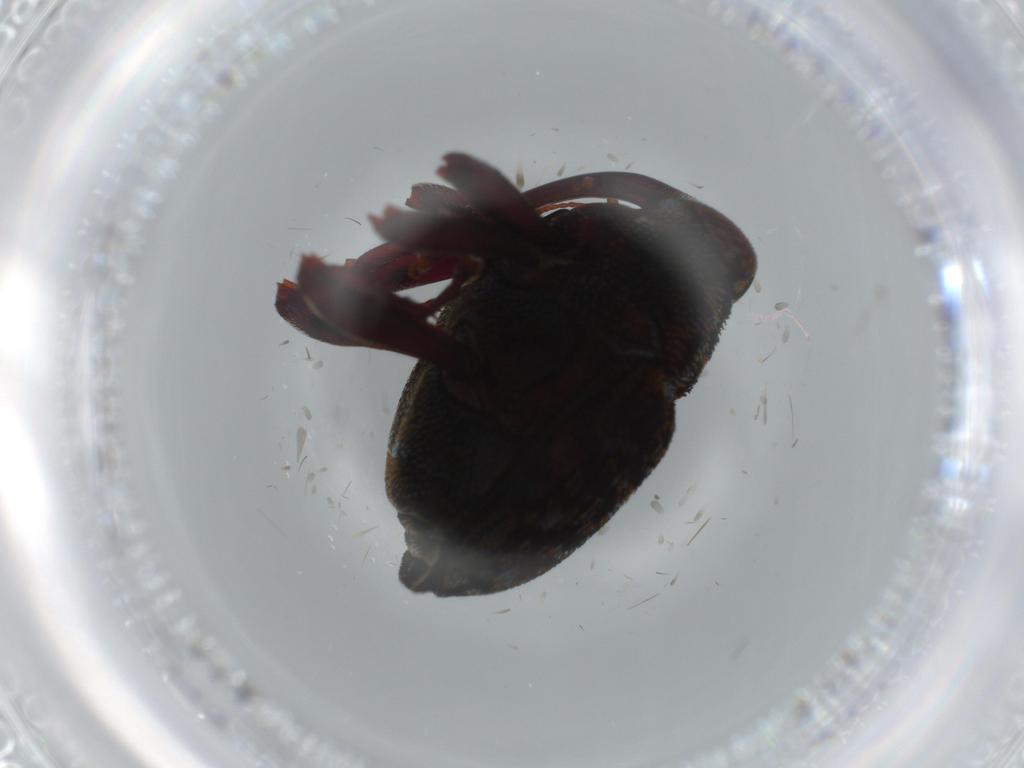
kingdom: Animalia
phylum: Arthropoda
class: Insecta
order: Coleoptera
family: Curculionidae
